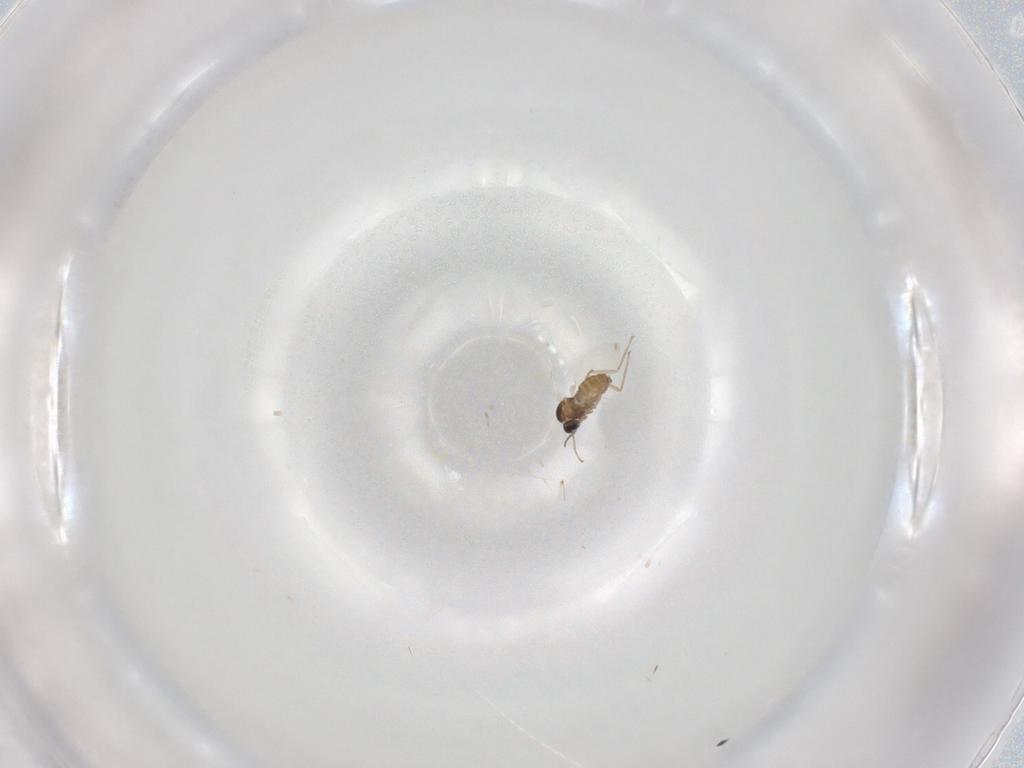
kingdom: Animalia
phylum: Arthropoda
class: Insecta
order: Diptera
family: Cecidomyiidae
